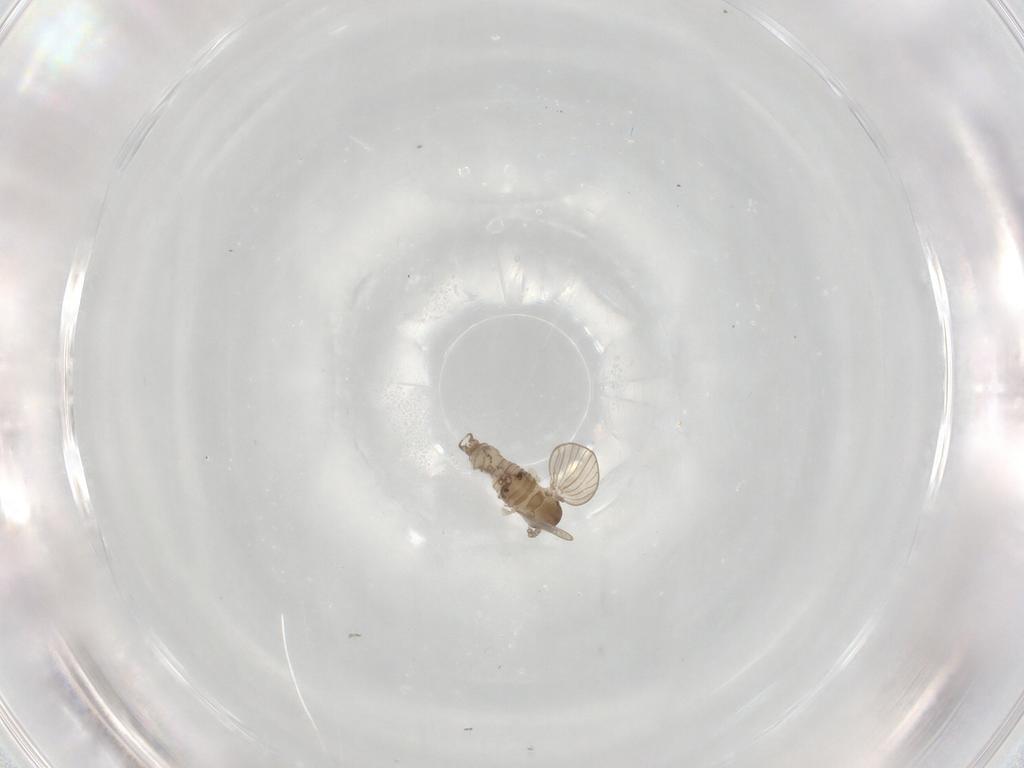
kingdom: Animalia
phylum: Arthropoda
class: Insecta
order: Diptera
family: Psychodidae
